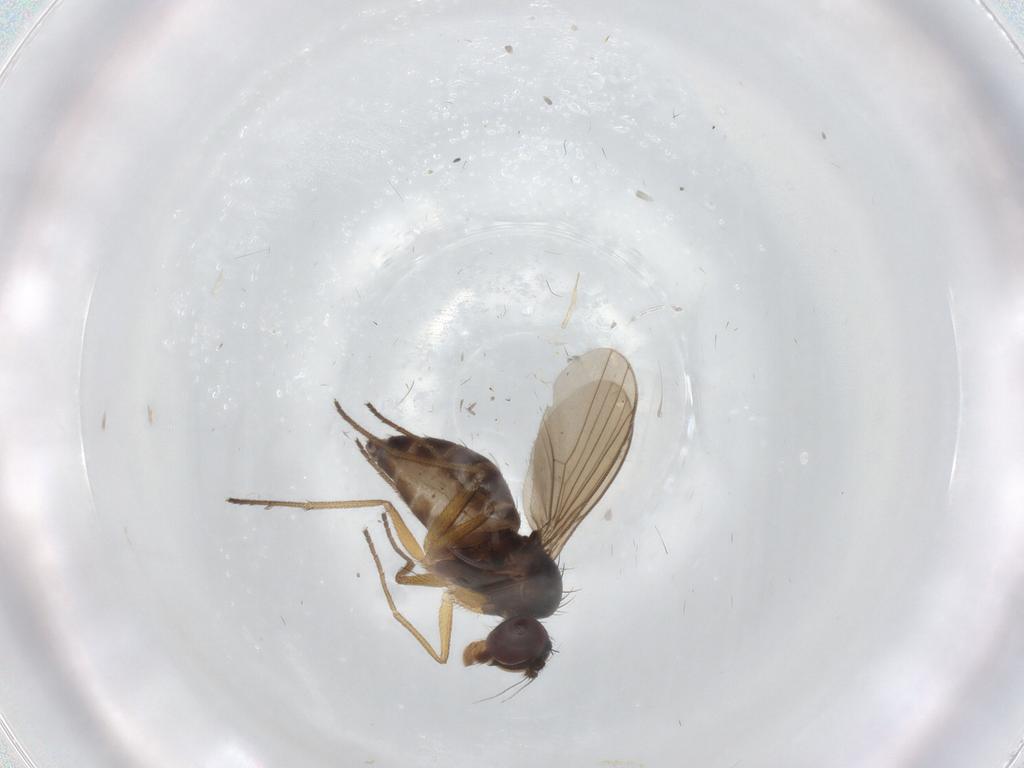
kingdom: Animalia
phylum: Arthropoda
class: Insecta
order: Diptera
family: Dolichopodidae
